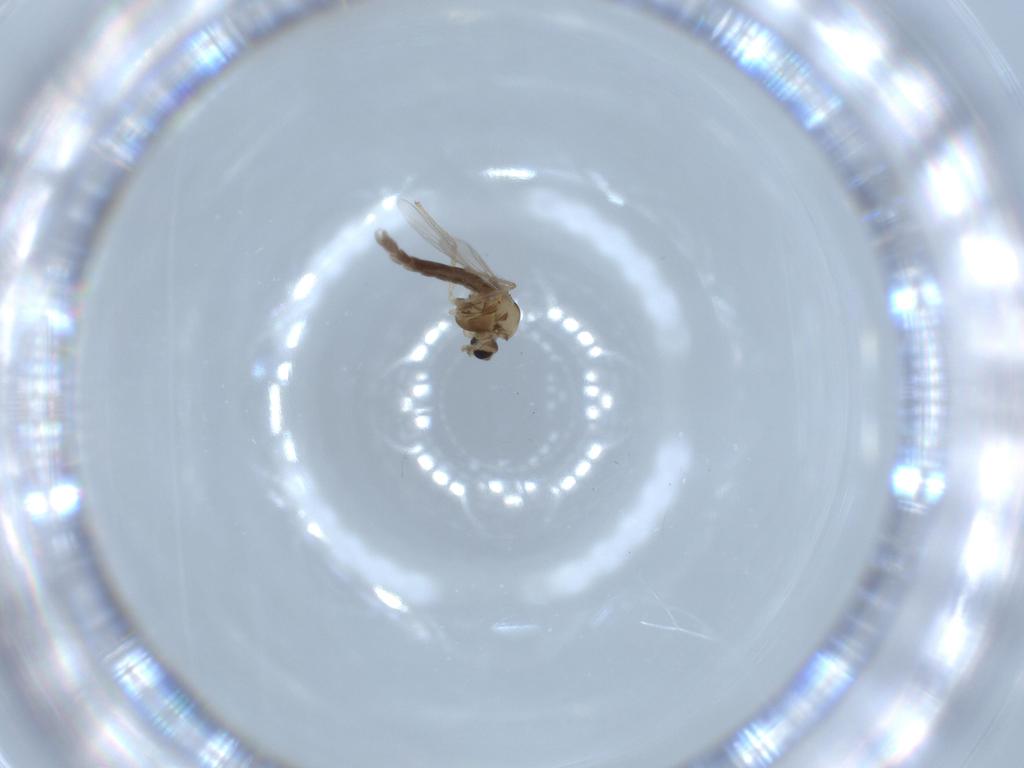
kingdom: Animalia
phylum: Arthropoda
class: Insecta
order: Diptera
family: Chironomidae
